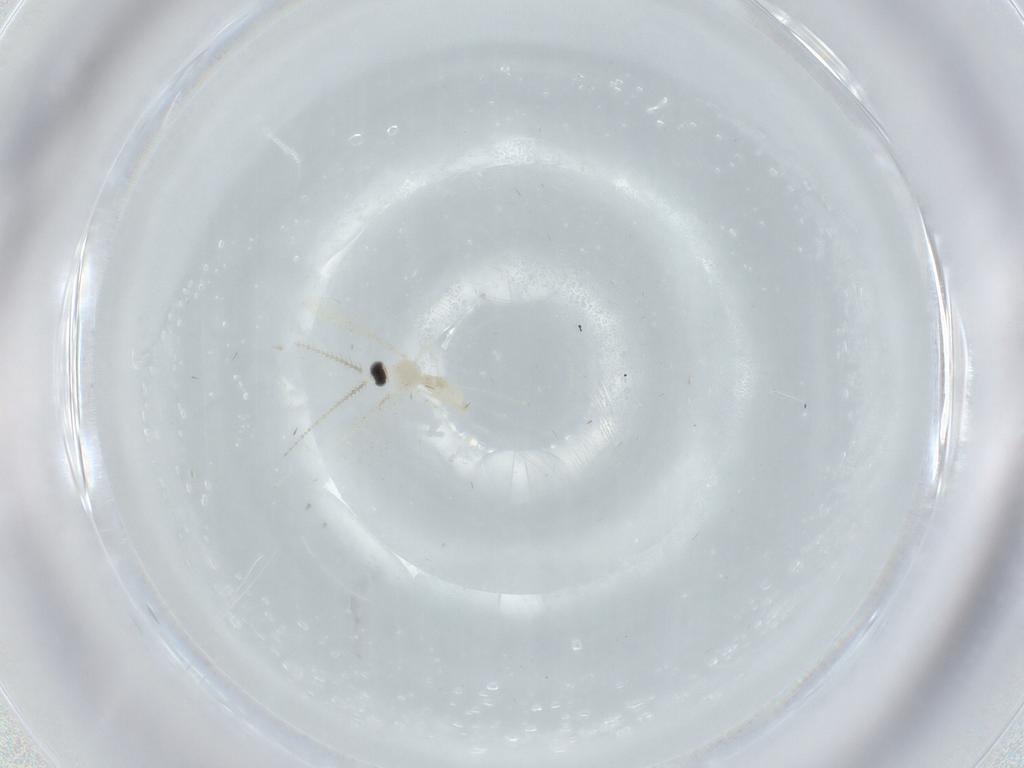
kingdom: Animalia
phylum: Arthropoda
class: Insecta
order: Diptera
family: Cecidomyiidae
